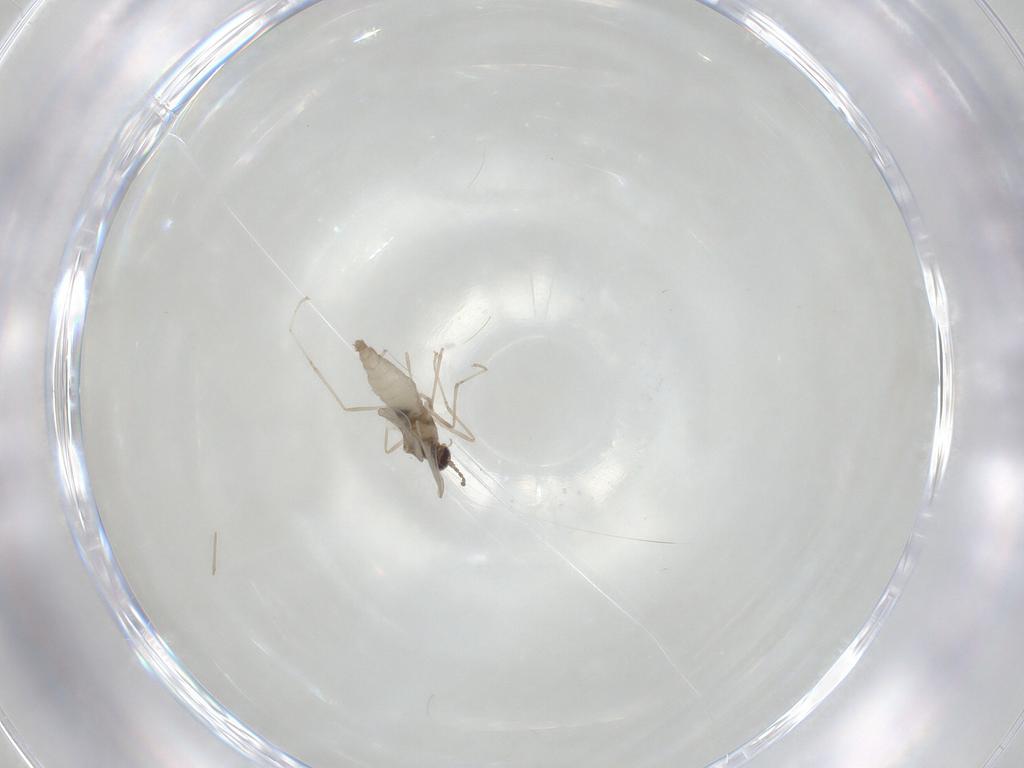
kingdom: Animalia
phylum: Arthropoda
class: Insecta
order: Diptera
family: Cecidomyiidae
